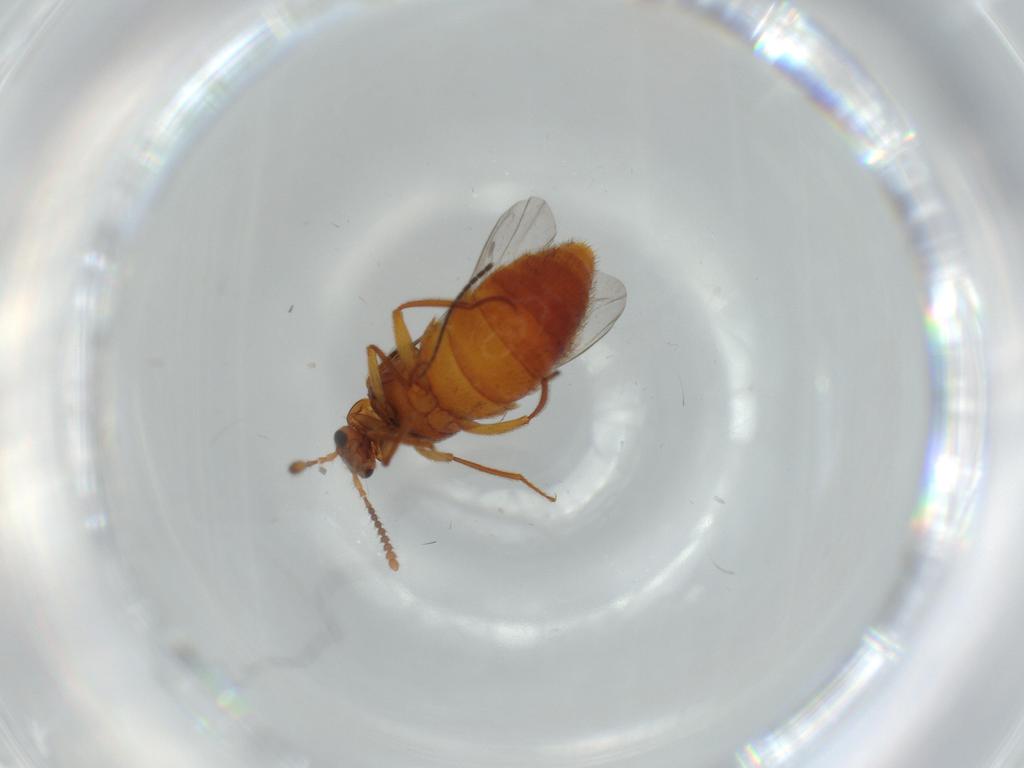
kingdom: Animalia
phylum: Arthropoda
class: Insecta
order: Coleoptera
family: Staphylinidae
